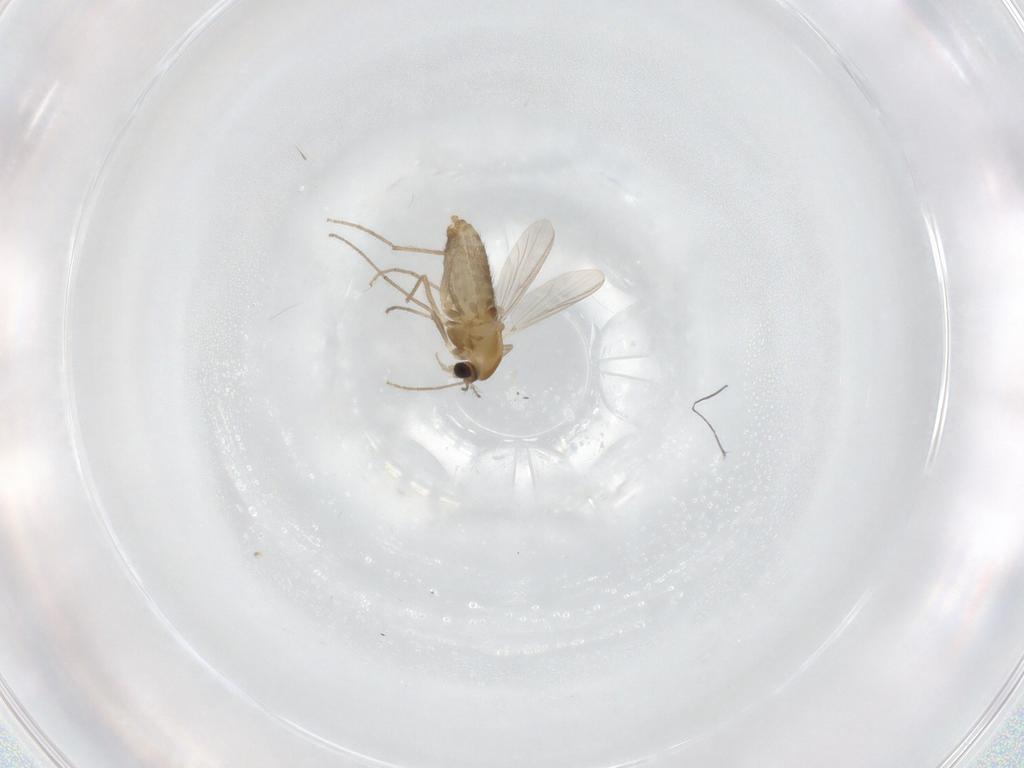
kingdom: Animalia
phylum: Arthropoda
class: Insecta
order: Diptera
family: Chironomidae
